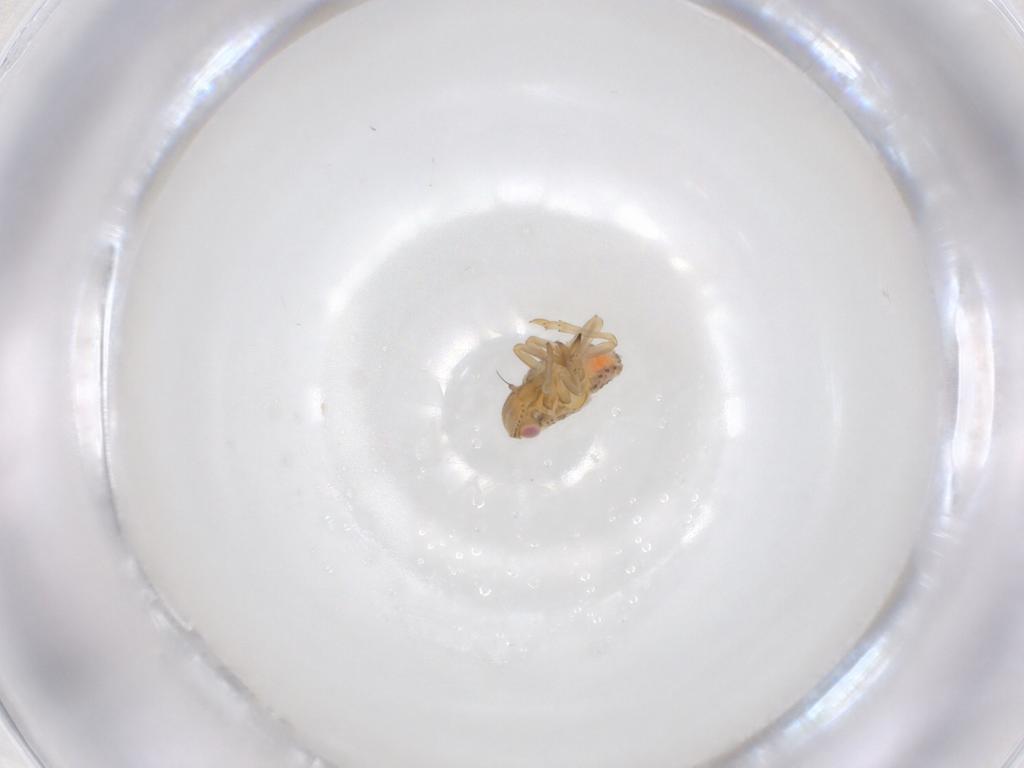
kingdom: Animalia
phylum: Arthropoda
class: Insecta
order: Hemiptera
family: Tropiduchidae
